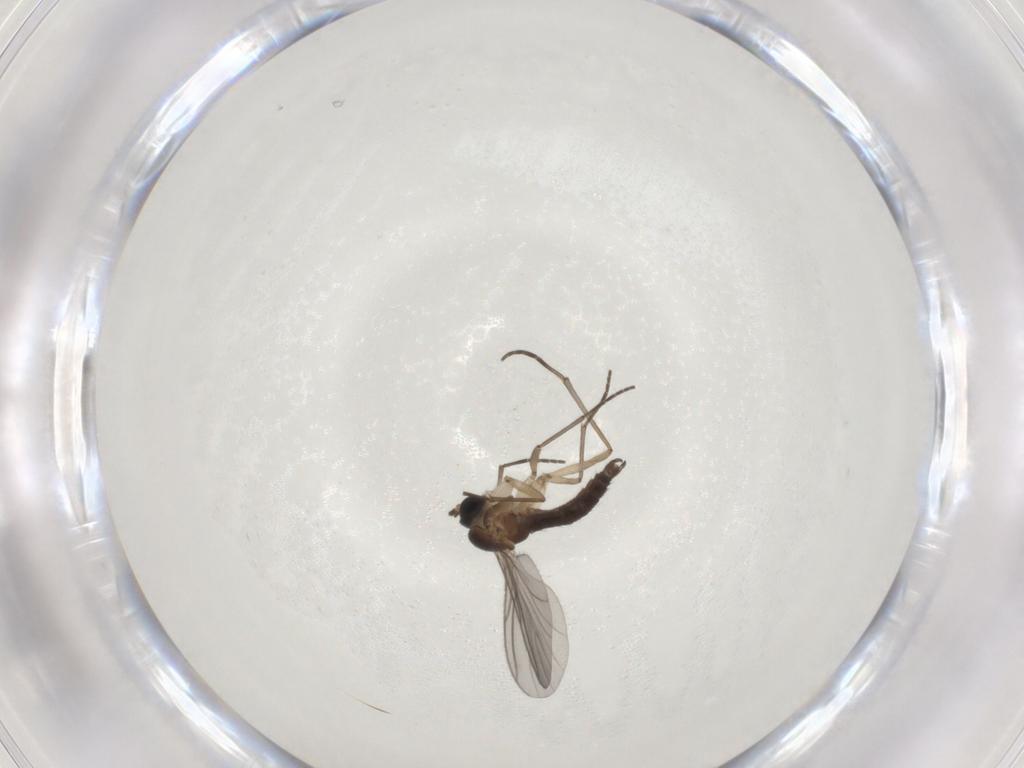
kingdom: Animalia
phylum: Arthropoda
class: Insecta
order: Diptera
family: Sciaridae
